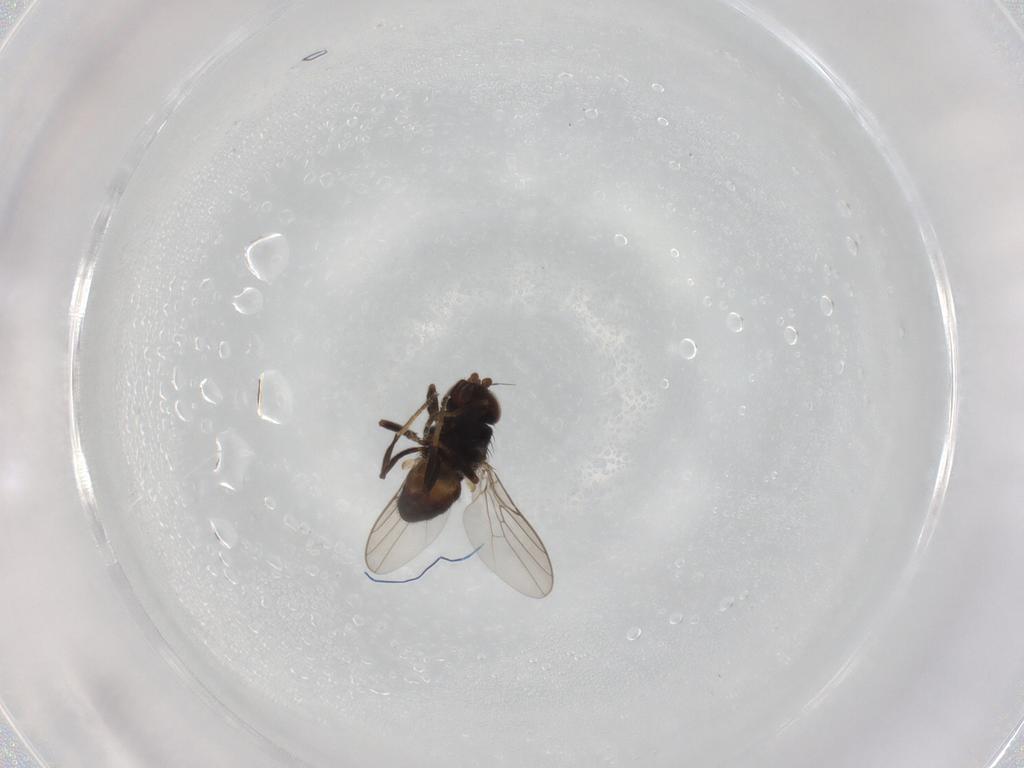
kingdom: Animalia
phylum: Arthropoda
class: Insecta
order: Diptera
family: Chloropidae
